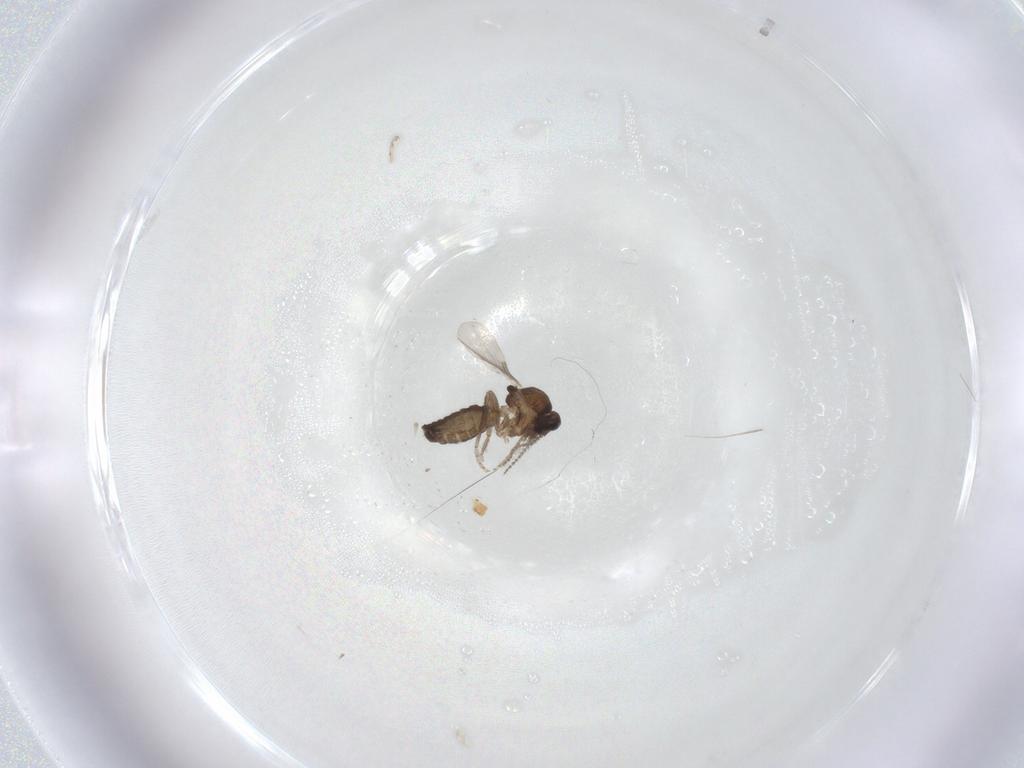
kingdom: Animalia
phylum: Arthropoda
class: Insecta
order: Diptera
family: Ceratopogonidae
